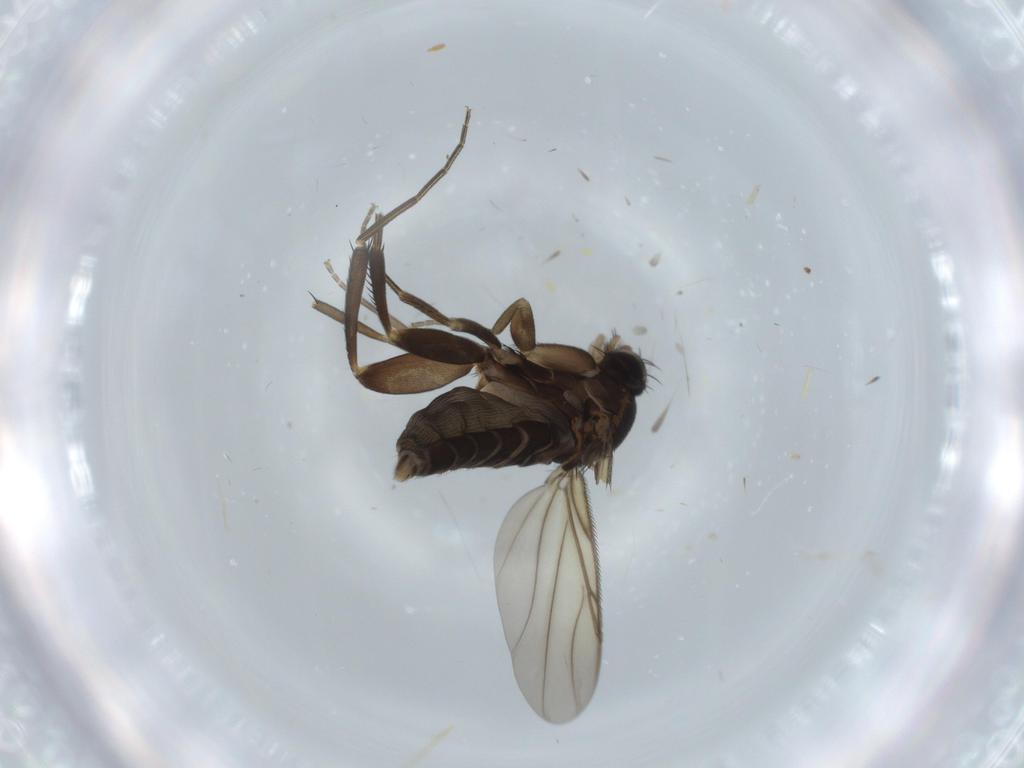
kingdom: Animalia
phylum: Arthropoda
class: Insecta
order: Diptera
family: Phoridae
